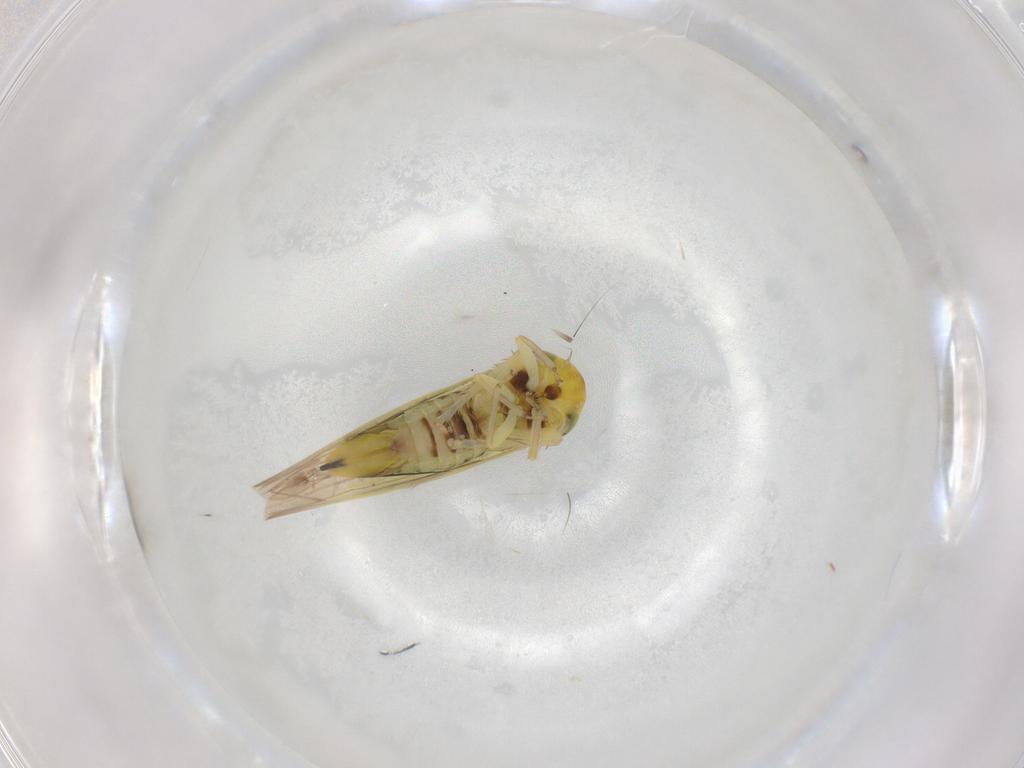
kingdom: Animalia
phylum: Arthropoda
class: Insecta
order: Hemiptera
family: Cicadellidae
